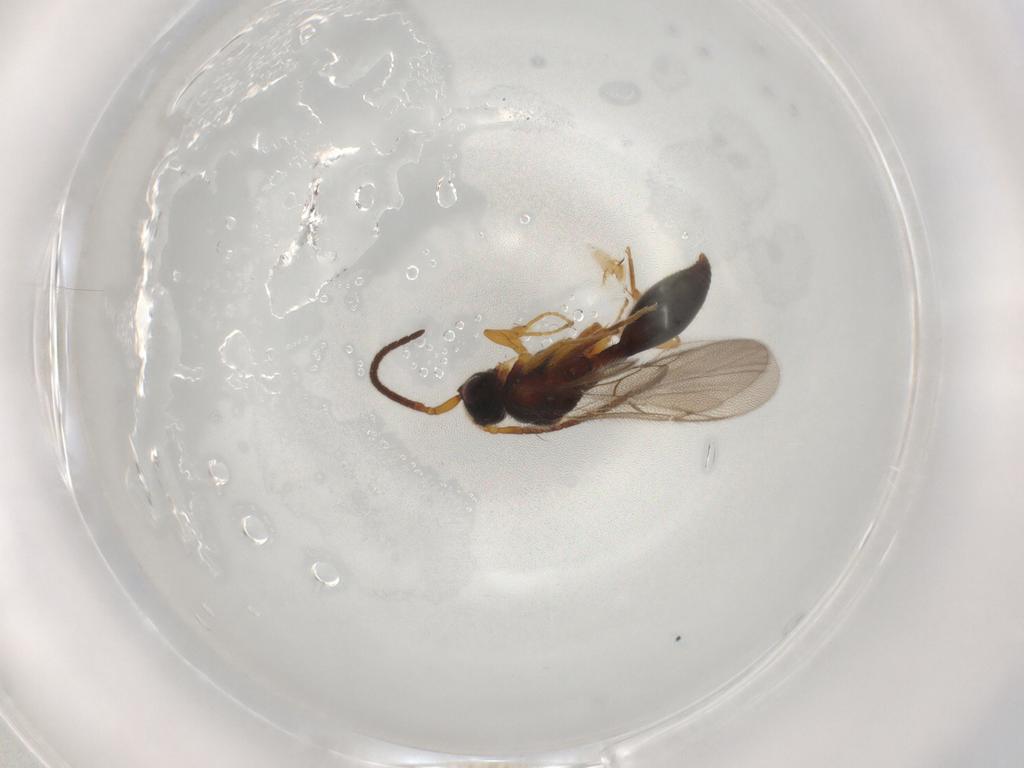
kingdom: Animalia
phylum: Arthropoda
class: Insecta
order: Hymenoptera
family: Diapriidae
